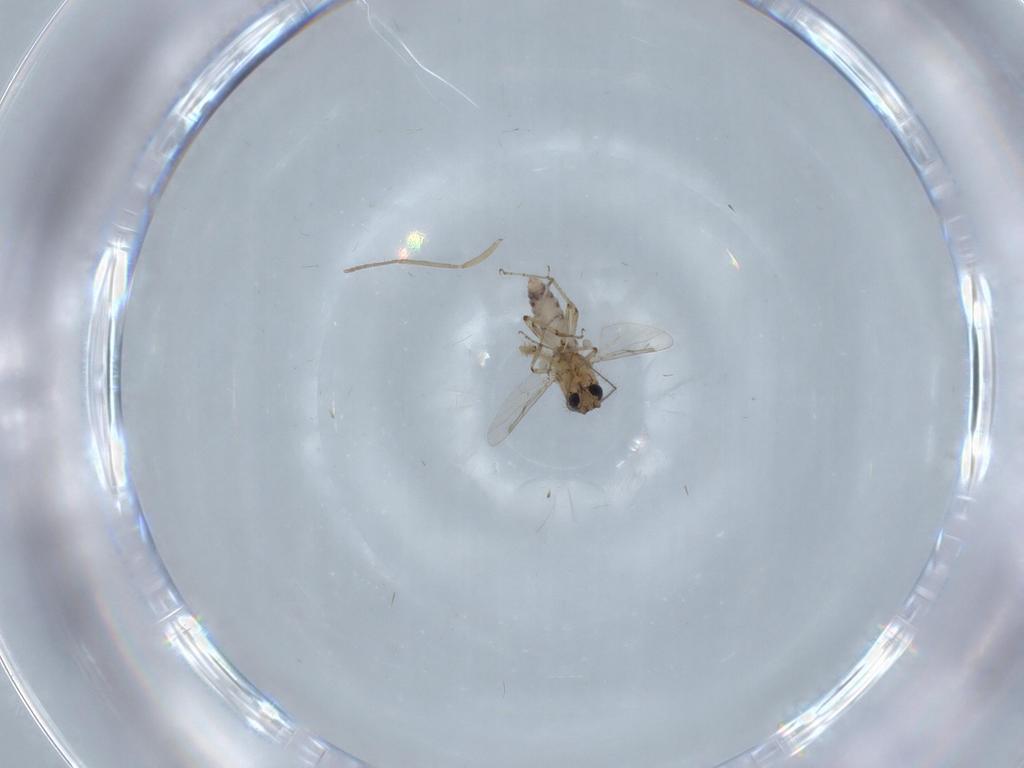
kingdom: Animalia
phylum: Arthropoda
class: Insecta
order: Diptera
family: Ceratopogonidae
